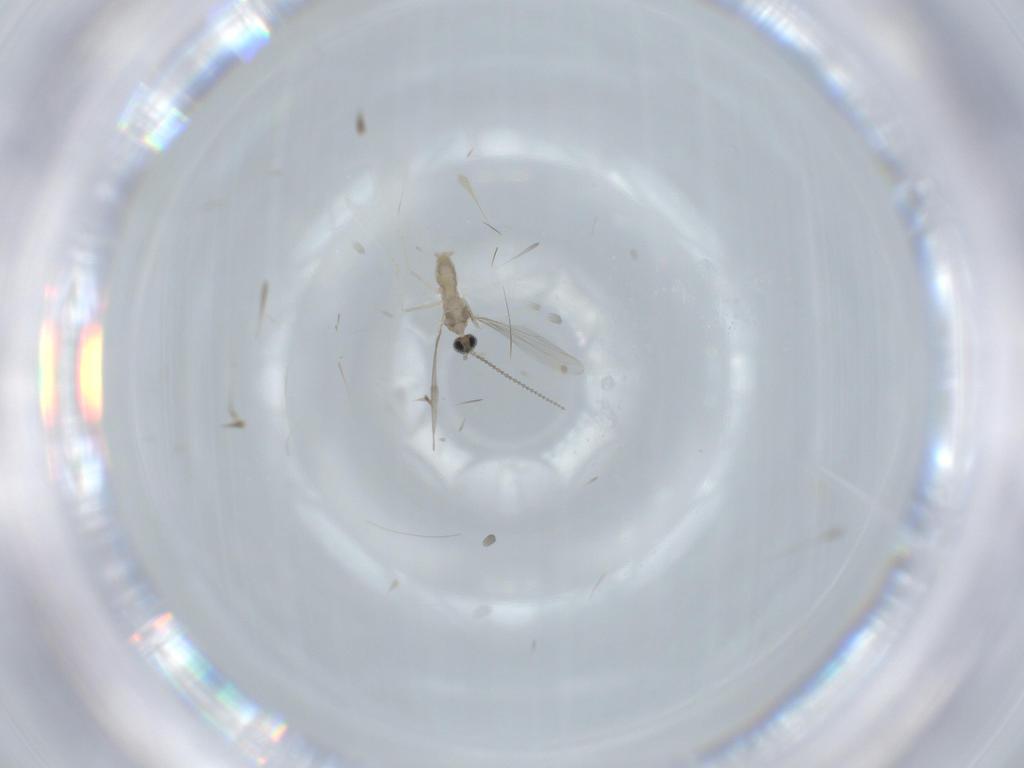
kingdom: Animalia
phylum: Arthropoda
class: Insecta
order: Diptera
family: Cecidomyiidae
